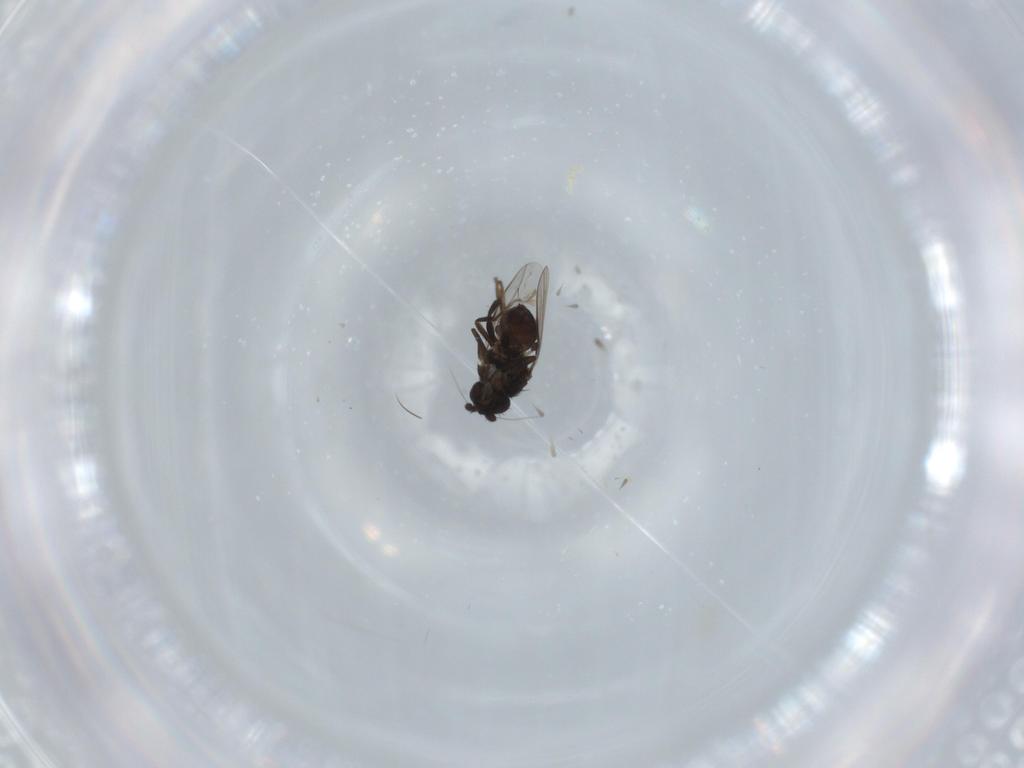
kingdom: Animalia
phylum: Arthropoda
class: Insecta
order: Diptera
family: Sphaeroceridae
